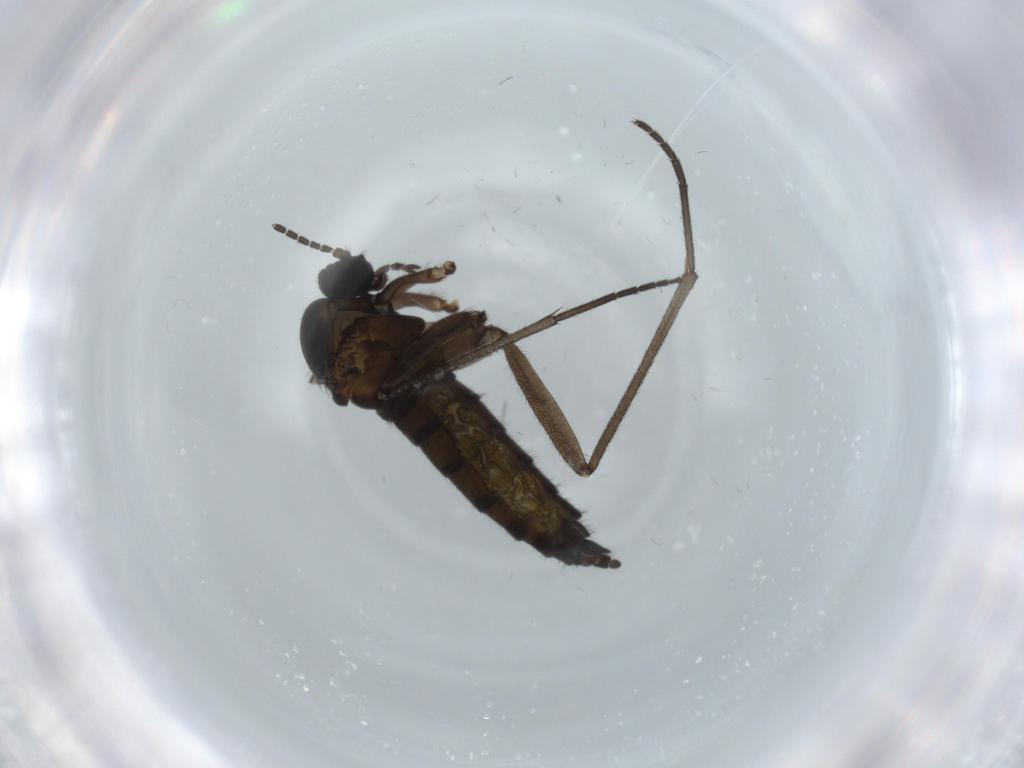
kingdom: Animalia
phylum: Arthropoda
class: Insecta
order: Diptera
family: Sciaridae
